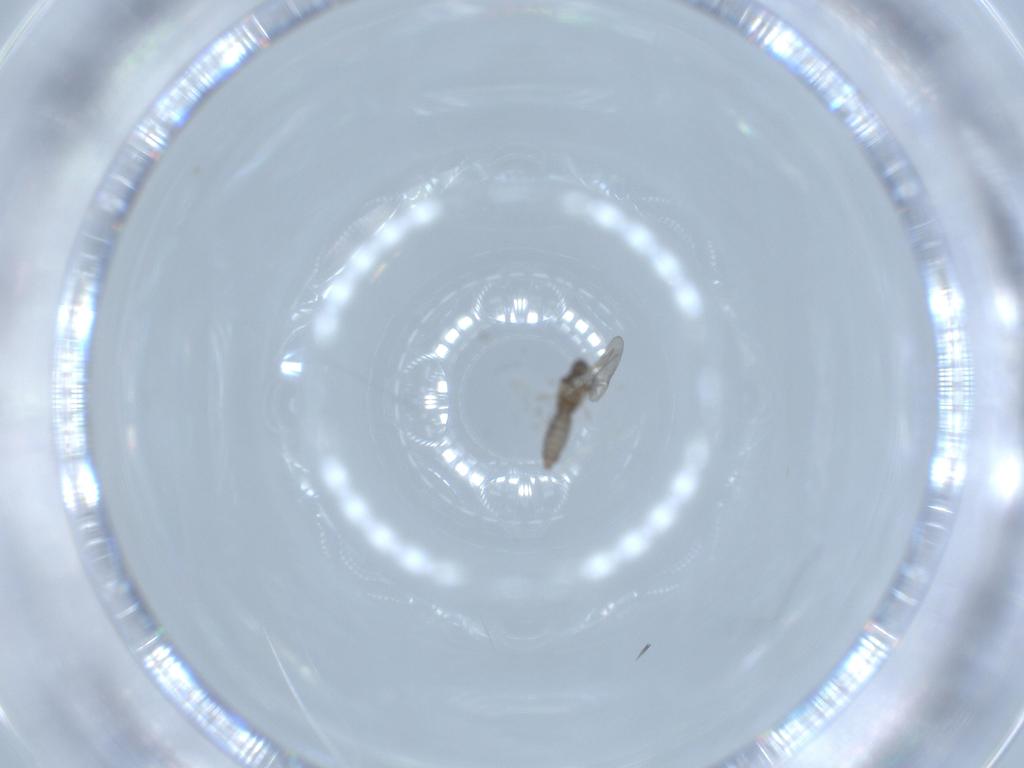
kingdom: Animalia
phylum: Arthropoda
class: Insecta
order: Diptera
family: Cecidomyiidae
